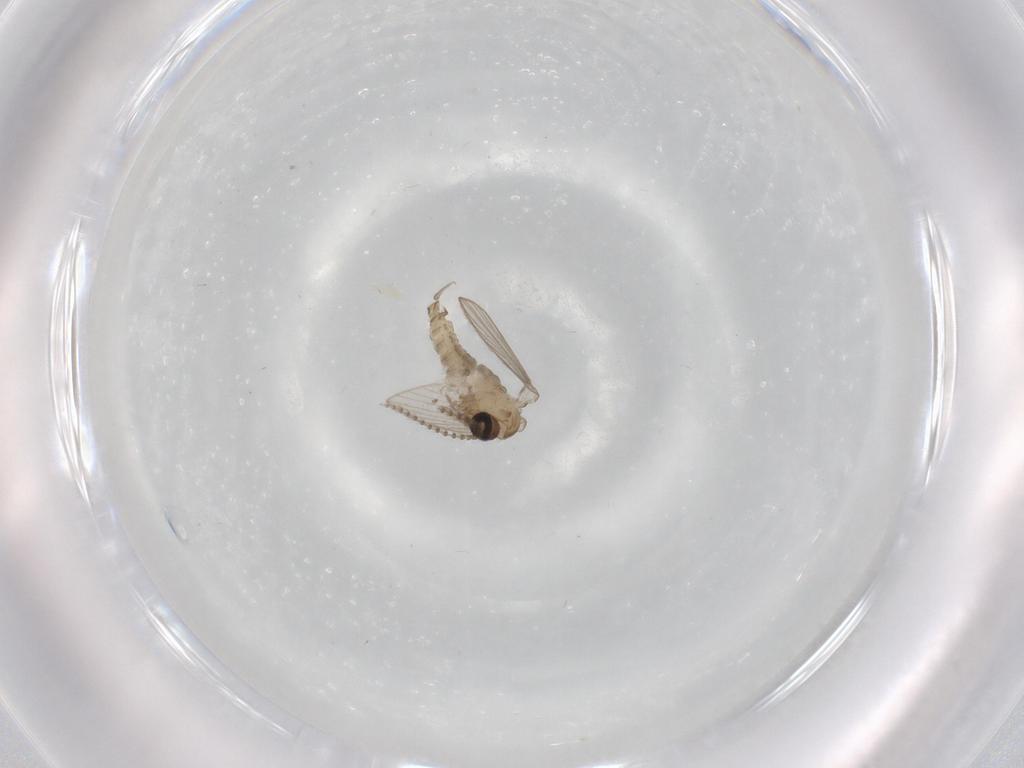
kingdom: Animalia
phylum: Arthropoda
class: Insecta
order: Diptera
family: Psychodidae
